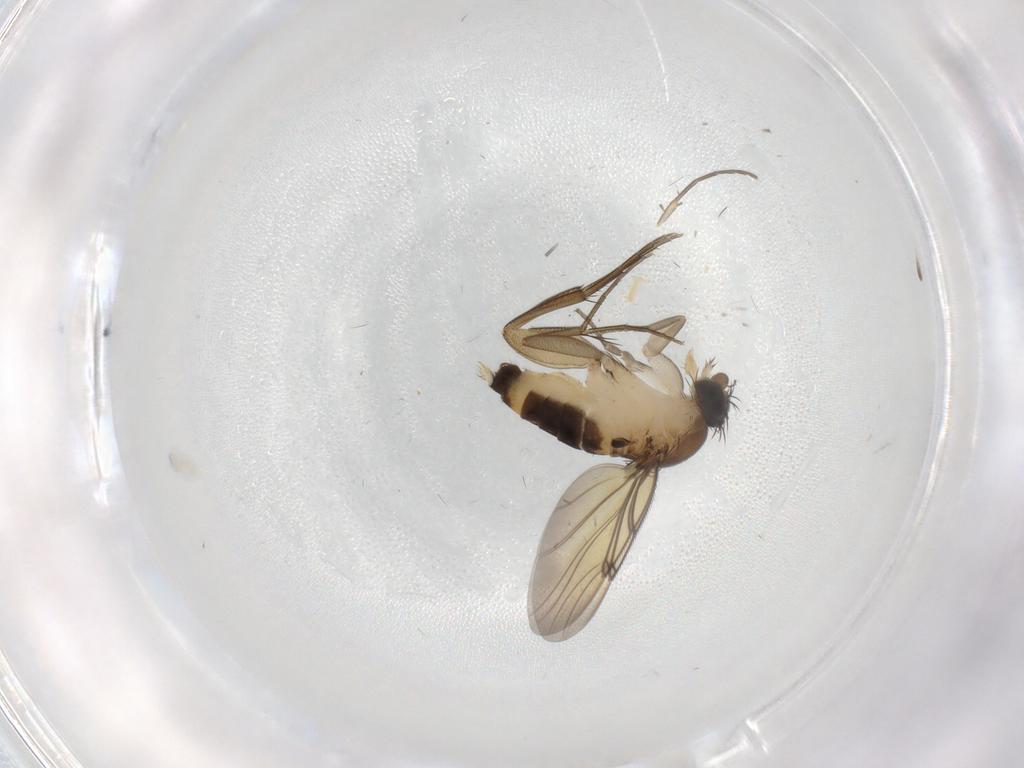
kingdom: Animalia
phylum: Arthropoda
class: Insecta
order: Diptera
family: Mycetophilidae
